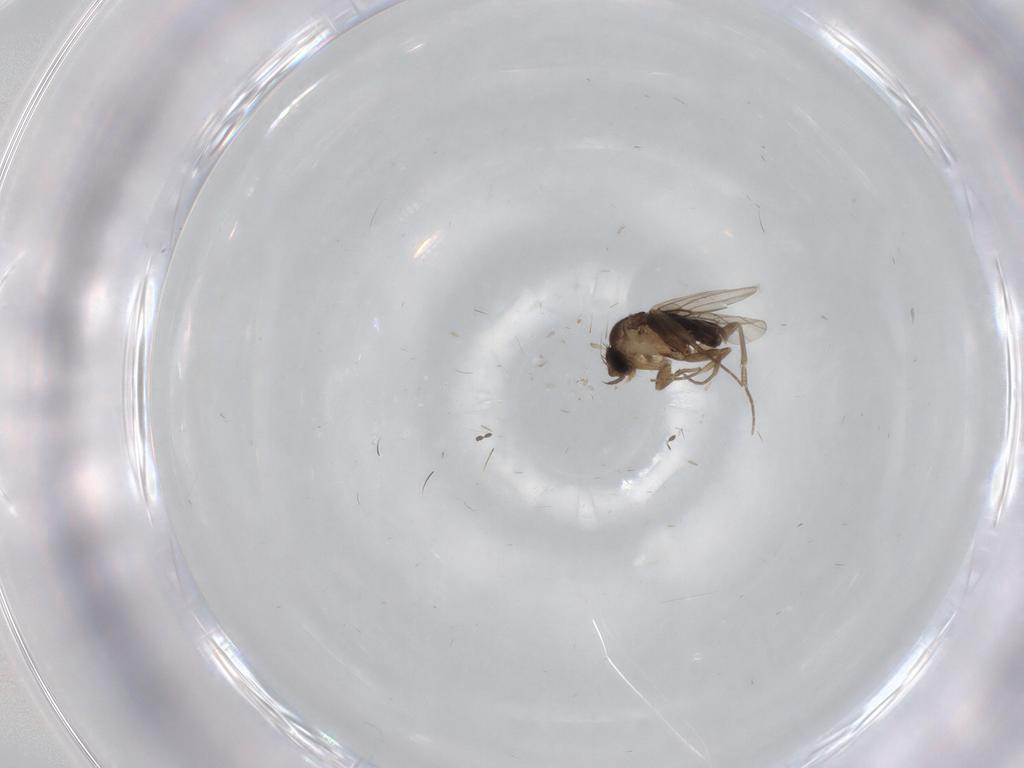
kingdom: Animalia
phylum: Arthropoda
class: Insecta
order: Diptera
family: Phoridae
